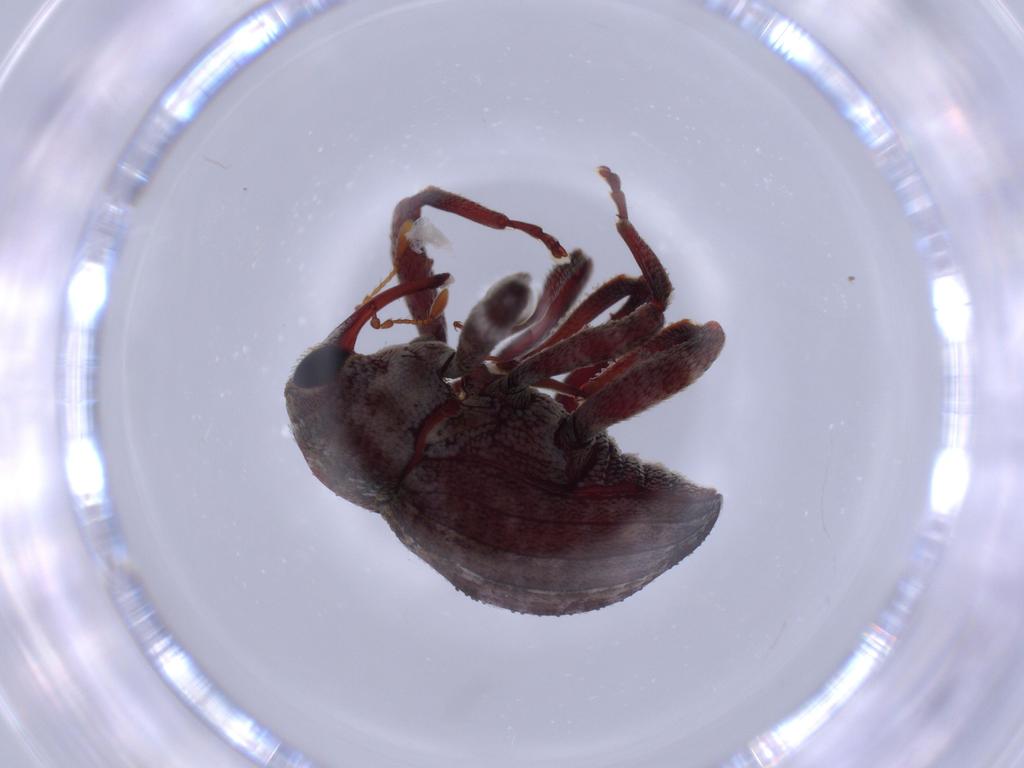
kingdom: Animalia
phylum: Arthropoda
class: Insecta
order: Coleoptera
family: Curculionidae
